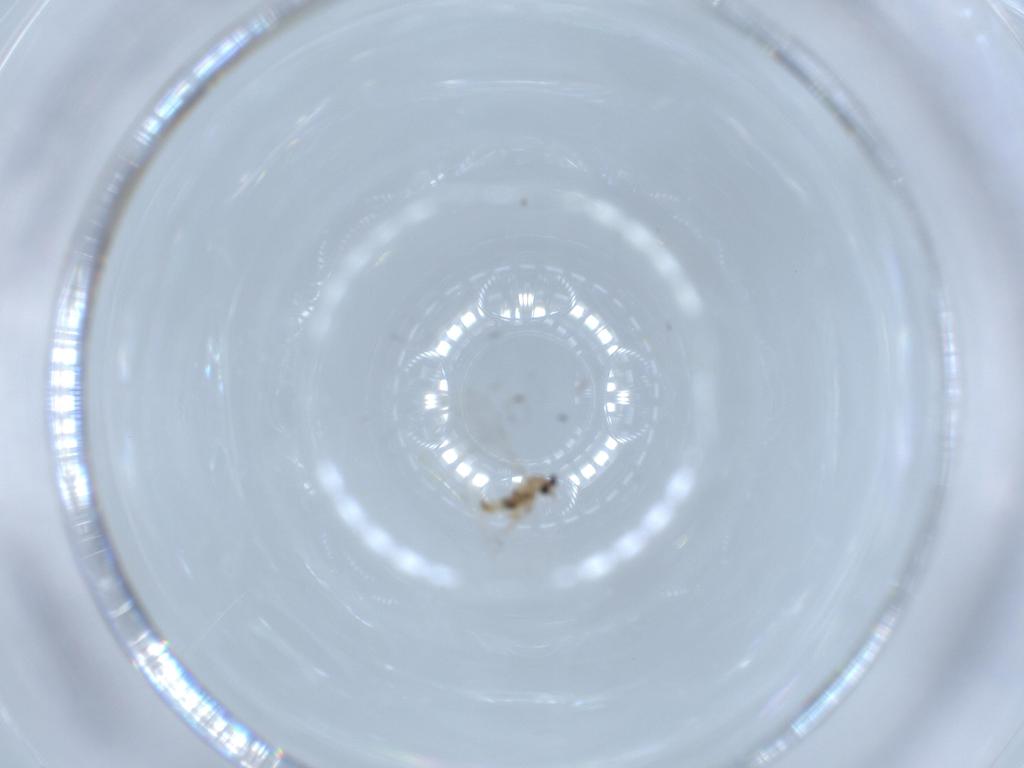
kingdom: Animalia
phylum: Arthropoda
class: Insecta
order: Diptera
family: Cecidomyiidae
